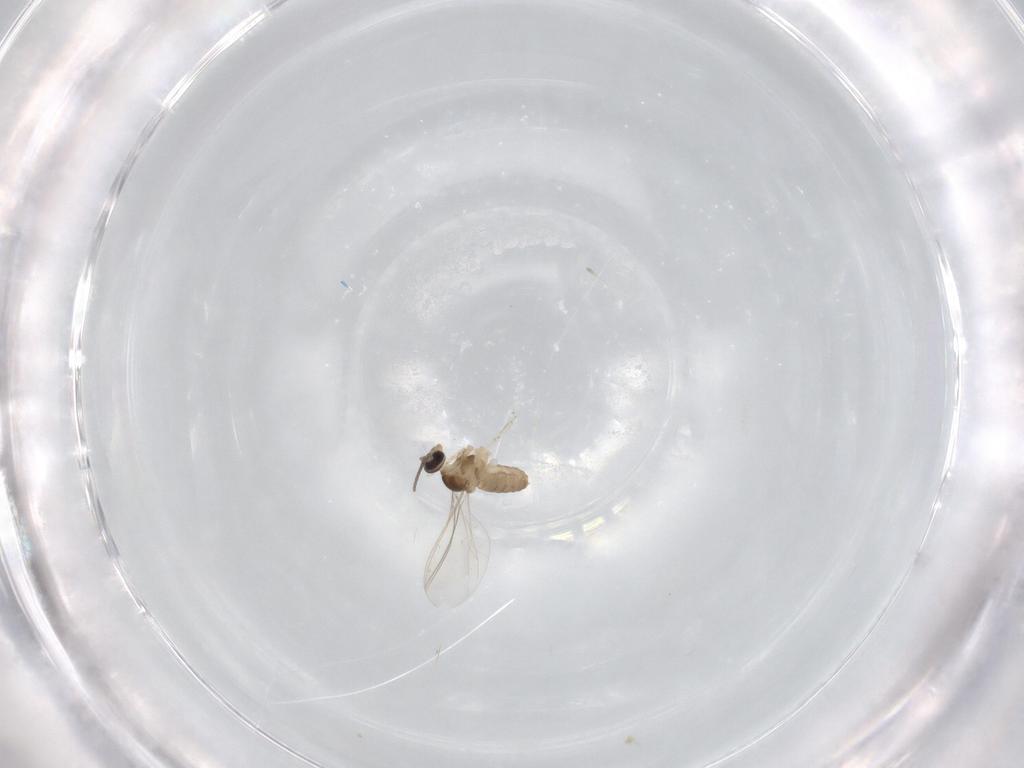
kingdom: Animalia
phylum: Arthropoda
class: Insecta
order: Diptera
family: Cecidomyiidae
